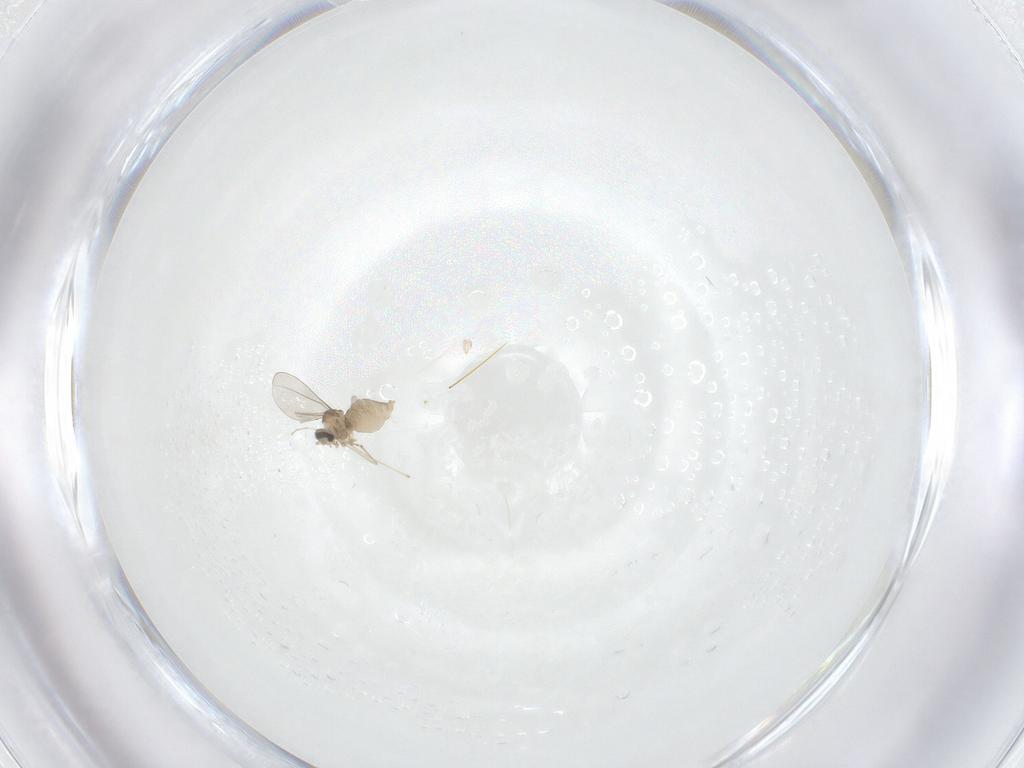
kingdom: Animalia
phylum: Arthropoda
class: Insecta
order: Diptera
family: Cecidomyiidae
